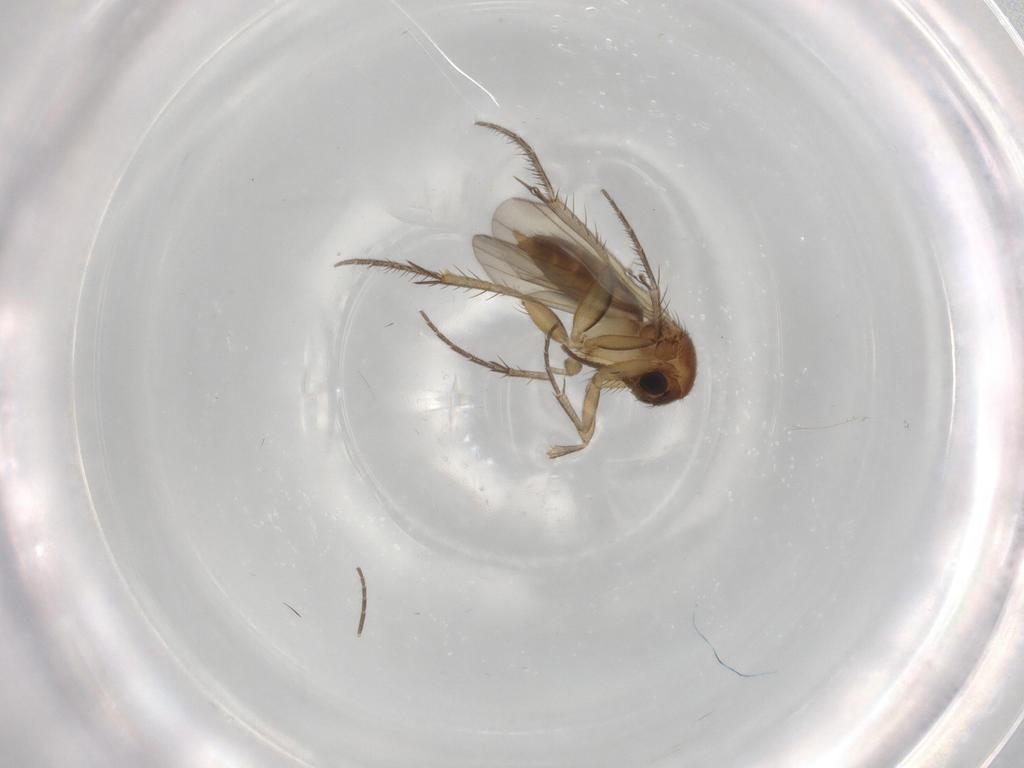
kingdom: Animalia
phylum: Arthropoda
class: Insecta
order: Diptera
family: Mycetophilidae
